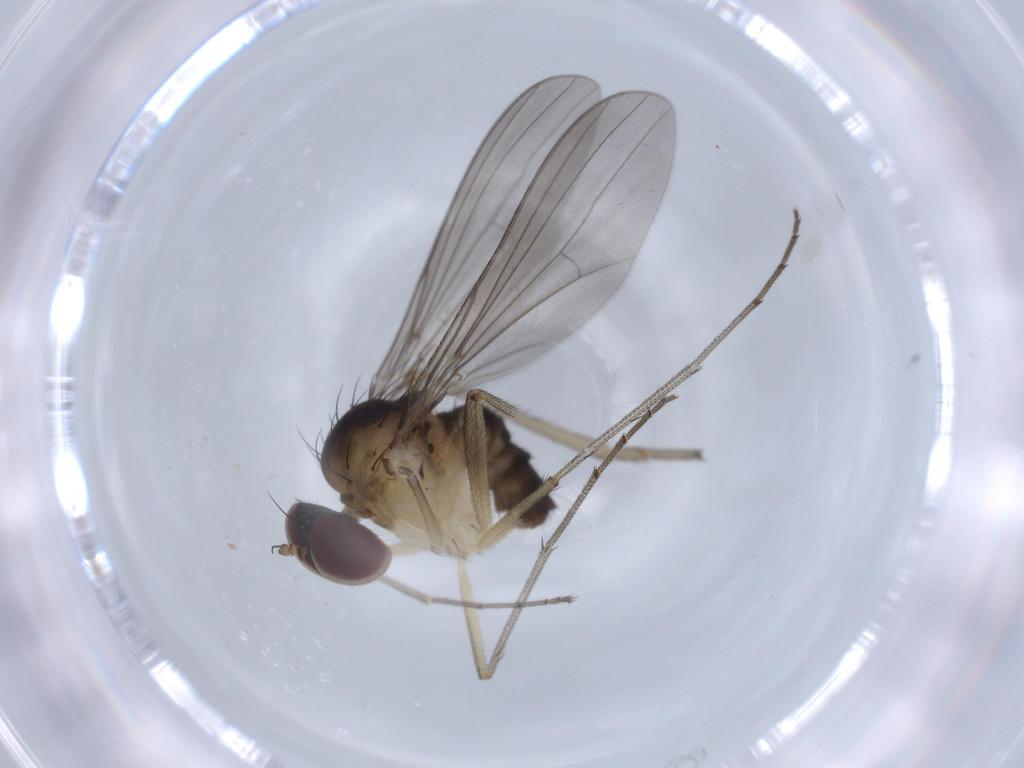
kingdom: Animalia
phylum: Arthropoda
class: Insecta
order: Diptera
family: Dolichopodidae
